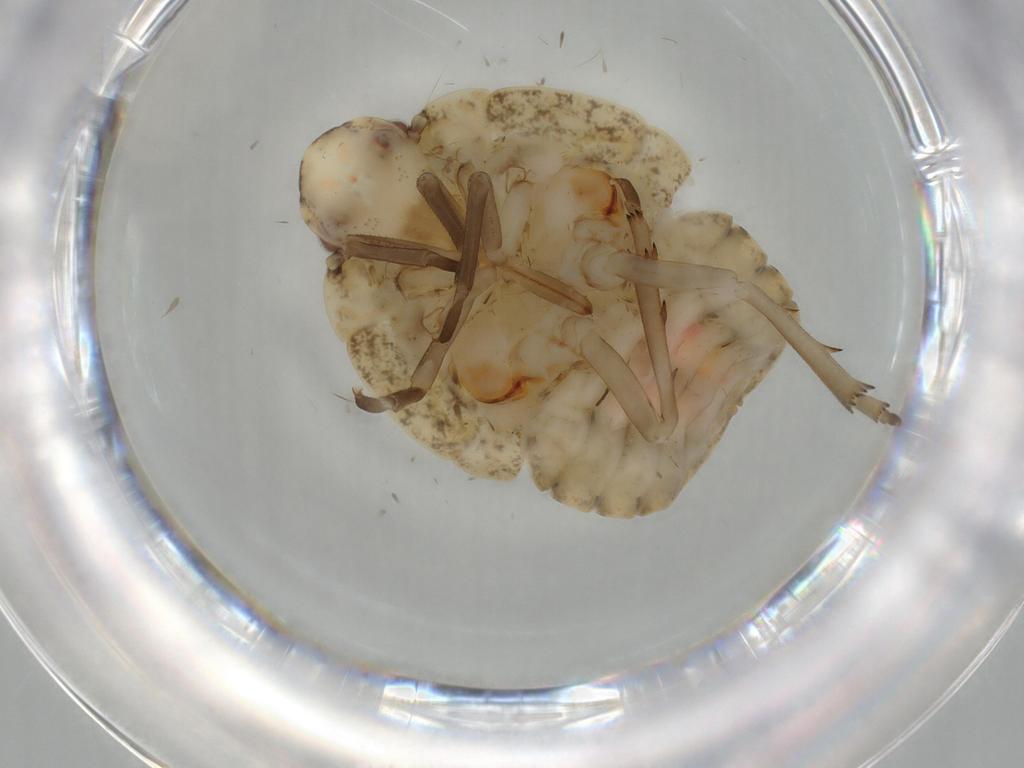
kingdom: Animalia
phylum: Arthropoda
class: Insecta
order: Hemiptera
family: Flatidae
